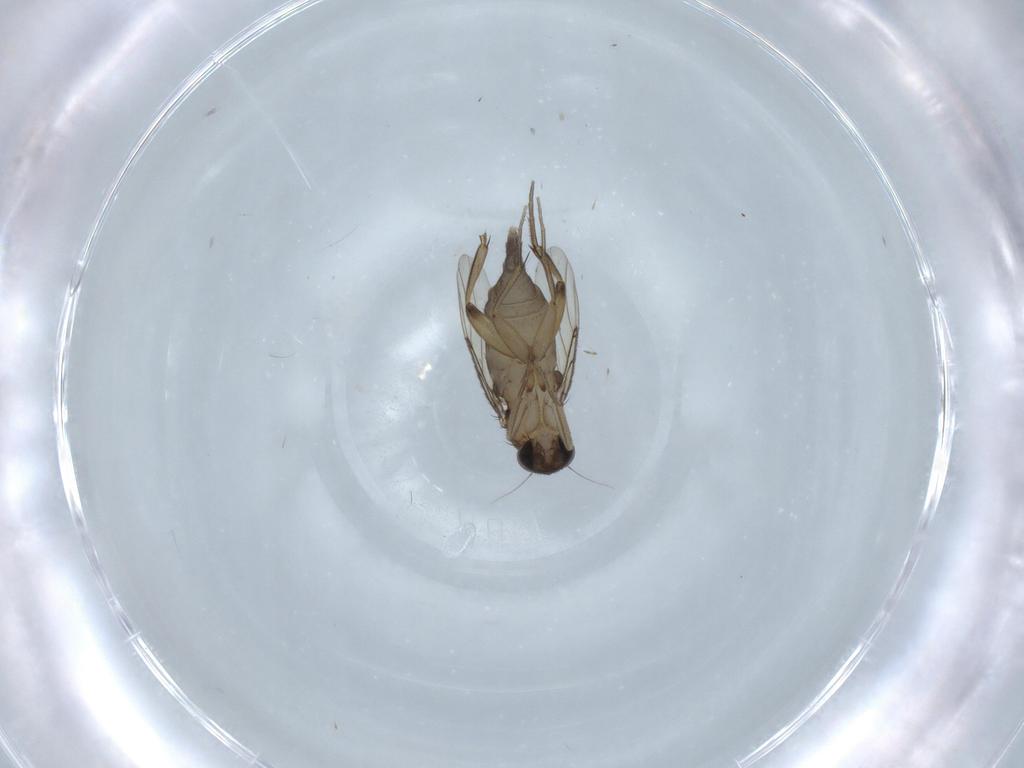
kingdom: Animalia
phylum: Arthropoda
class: Insecta
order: Diptera
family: Phoridae
